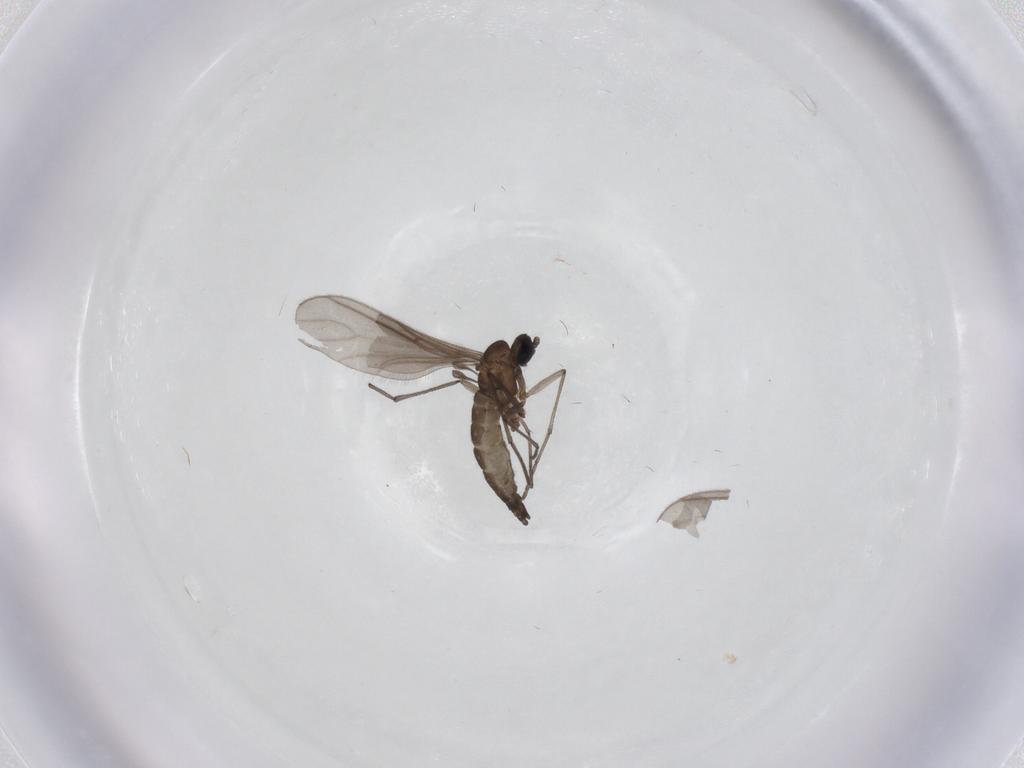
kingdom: Animalia
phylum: Arthropoda
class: Insecta
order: Diptera
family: Sciaridae
